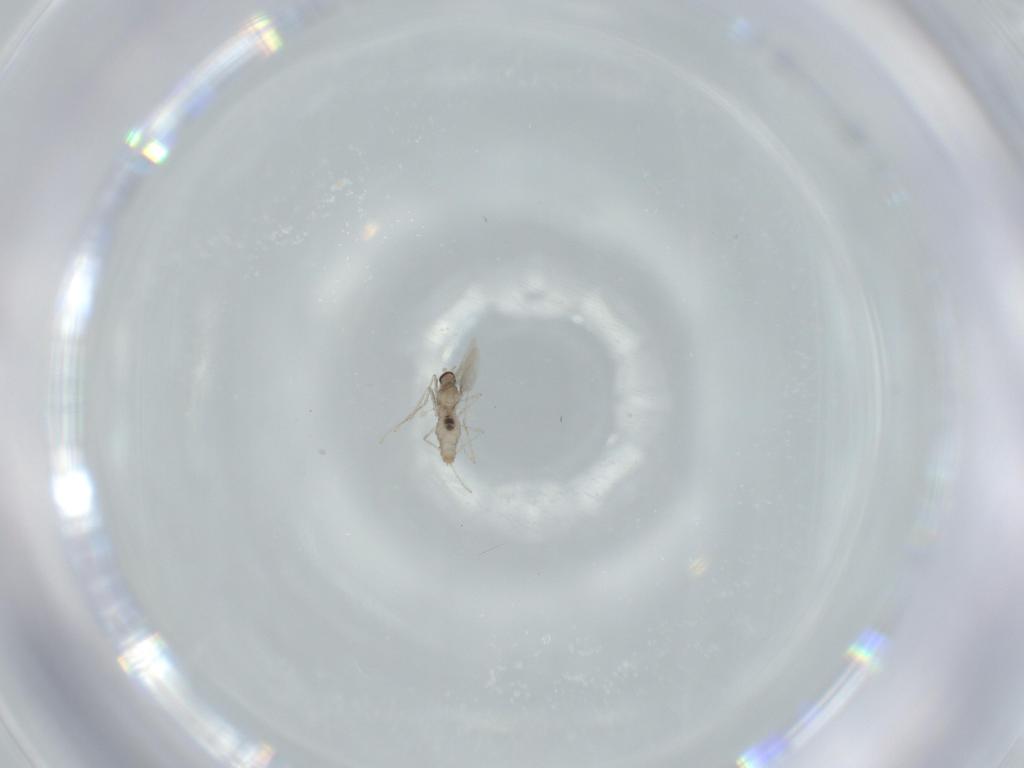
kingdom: Animalia
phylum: Arthropoda
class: Insecta
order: Diptera
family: Cecidomyiidae
